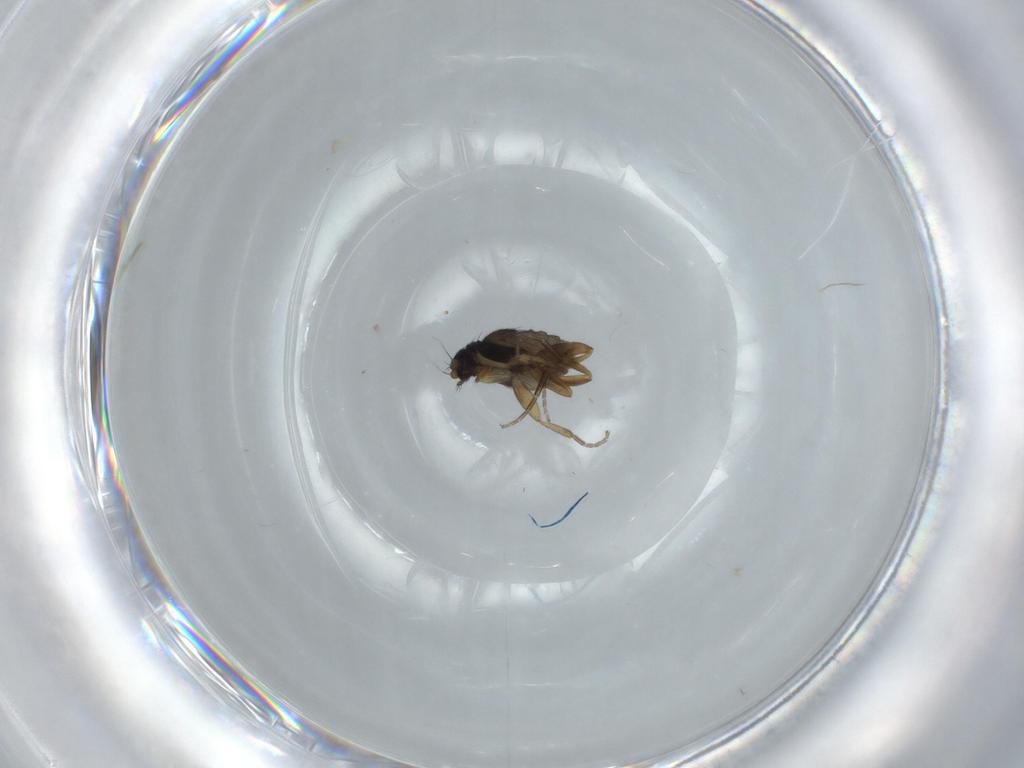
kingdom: Animalia
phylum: Arthropoda
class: Insecta
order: Diptera
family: Phoridae
